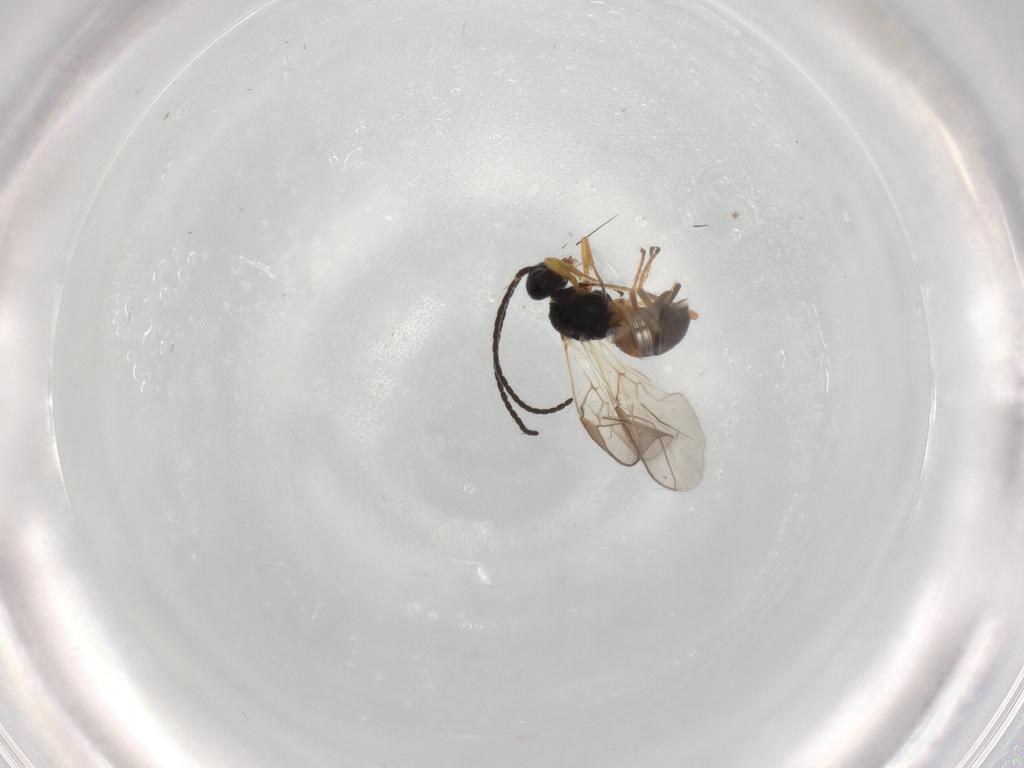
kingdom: Animalia
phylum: Arthropoda
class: Insecta
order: Hymenoptera
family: Braconidae
